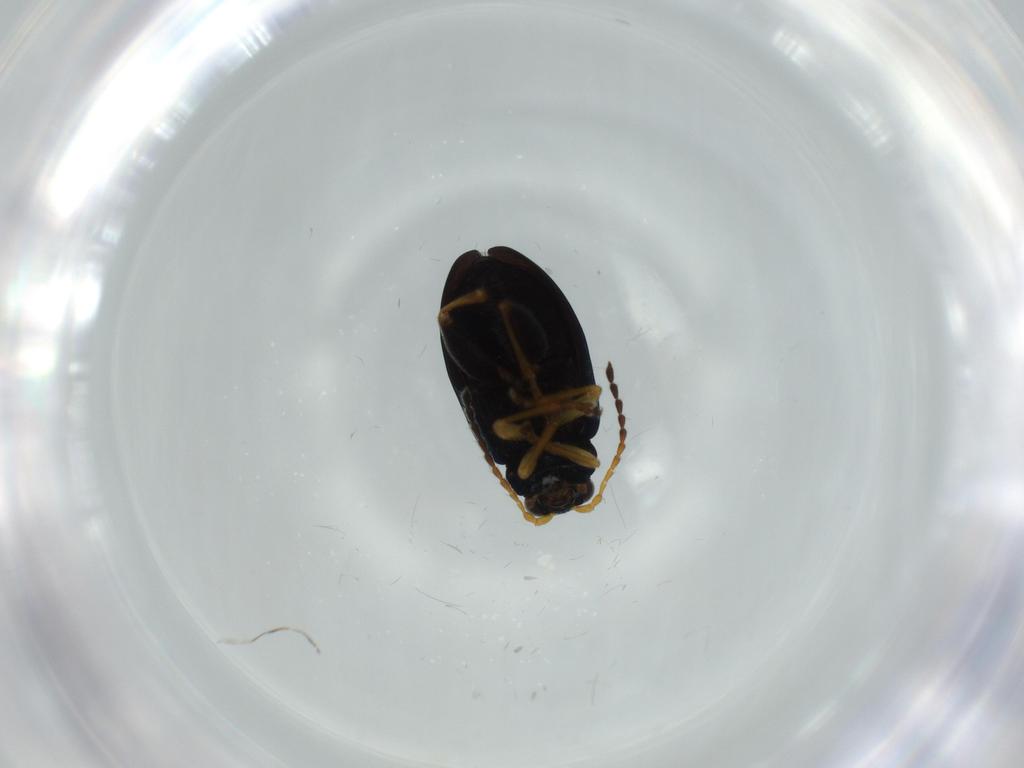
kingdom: Animalia
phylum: Arthropoda
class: Insecta
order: Coleoptera
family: Chrysomelidae
